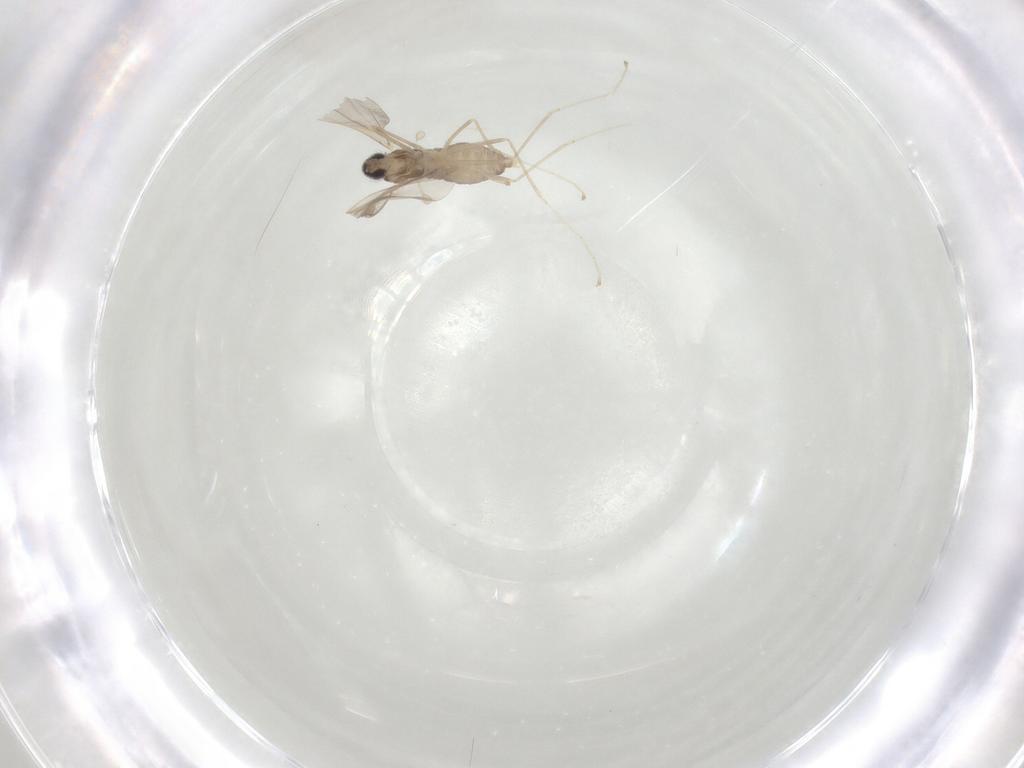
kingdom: Animalia
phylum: Arthropoda
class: Insecta
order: Diptera
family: Cecidomyiidae
